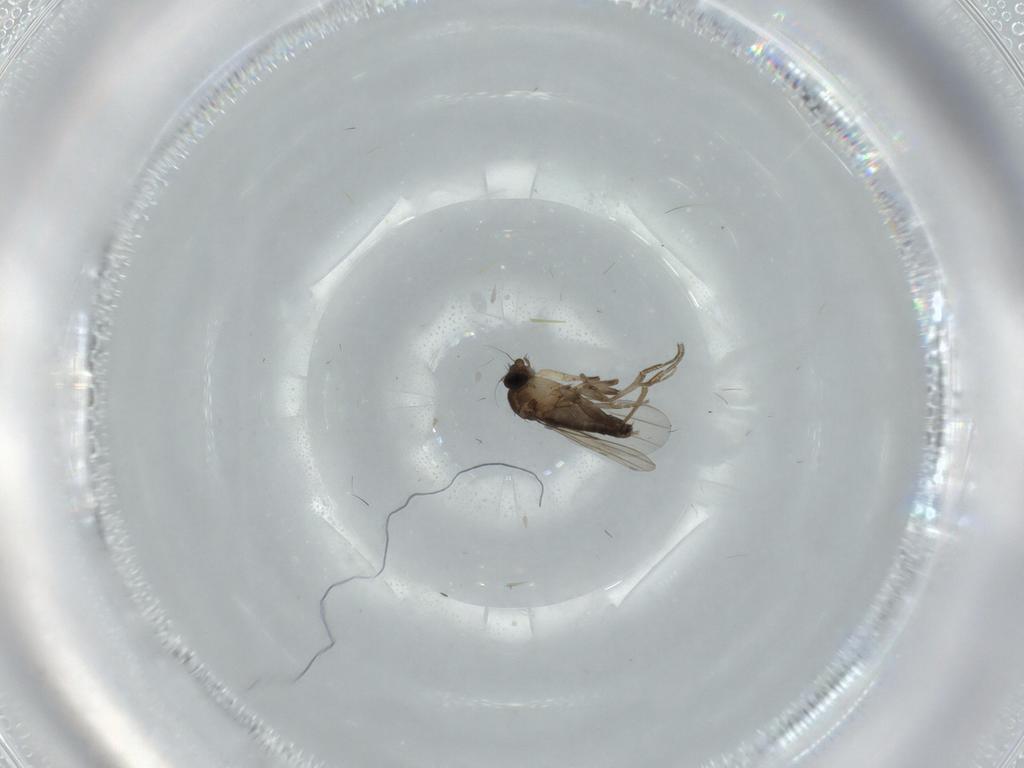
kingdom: Animalia
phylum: Arthropoda
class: Insecta
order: Diptera
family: Phoridae
